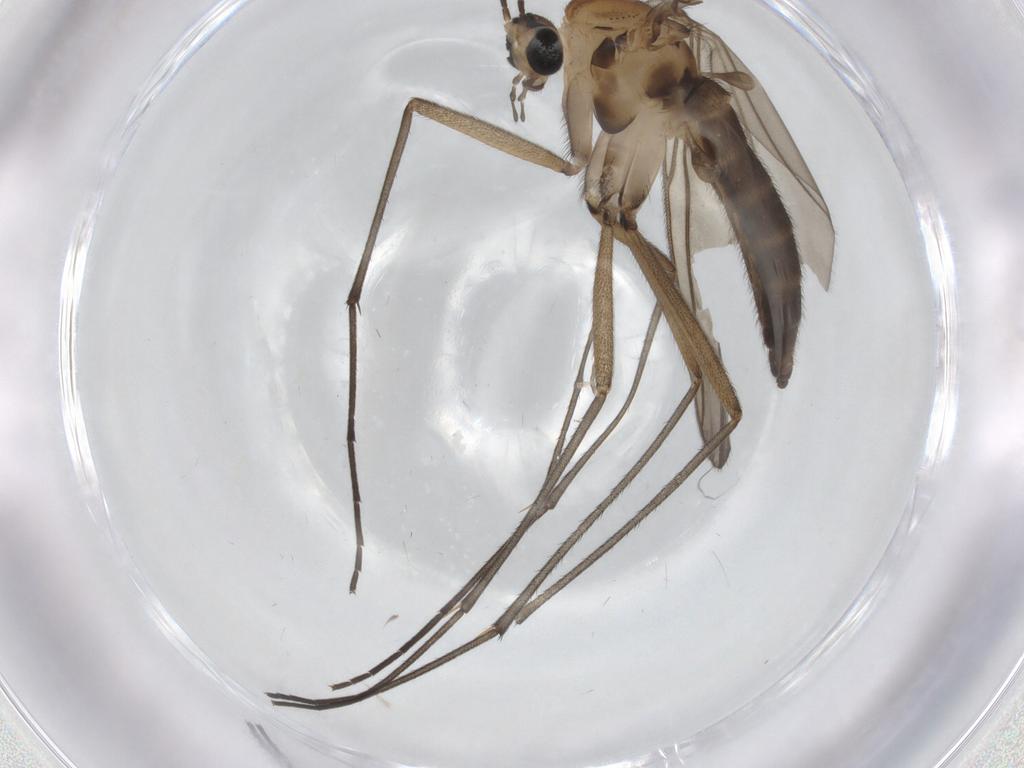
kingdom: Animalia
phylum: Arthropoda
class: Insecta
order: Diptera
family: Sciaridae
